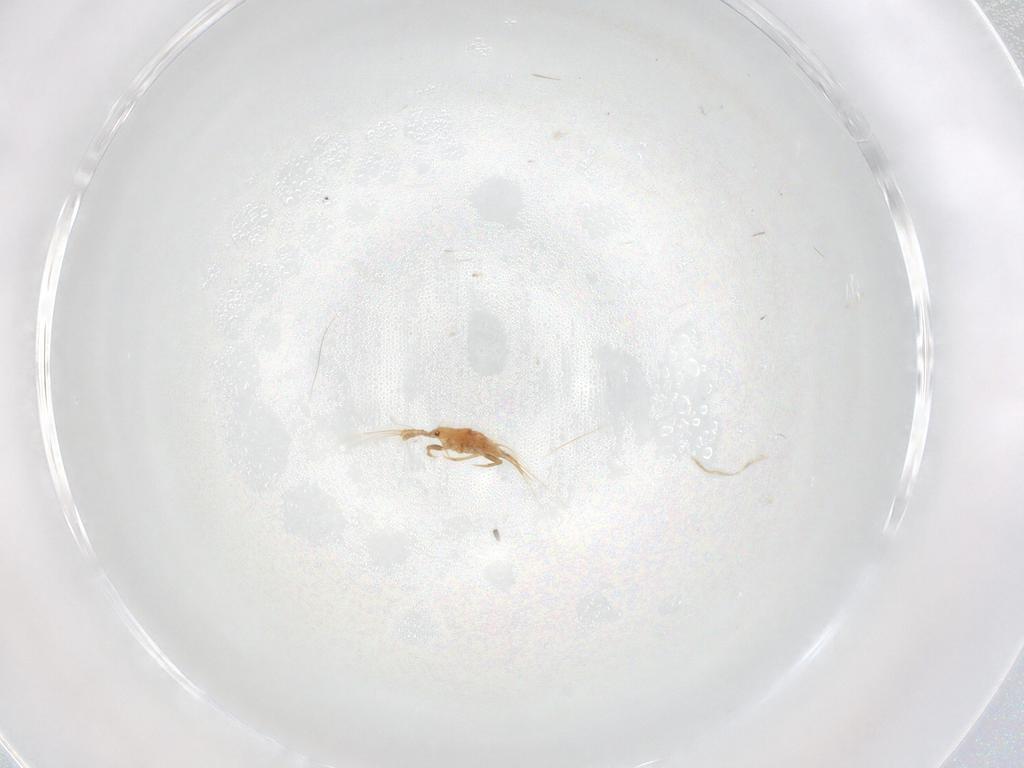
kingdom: Animalia
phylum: Arthropoda
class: Insecta
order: Hemiptera
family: Coccoidea_incertae_sedis
